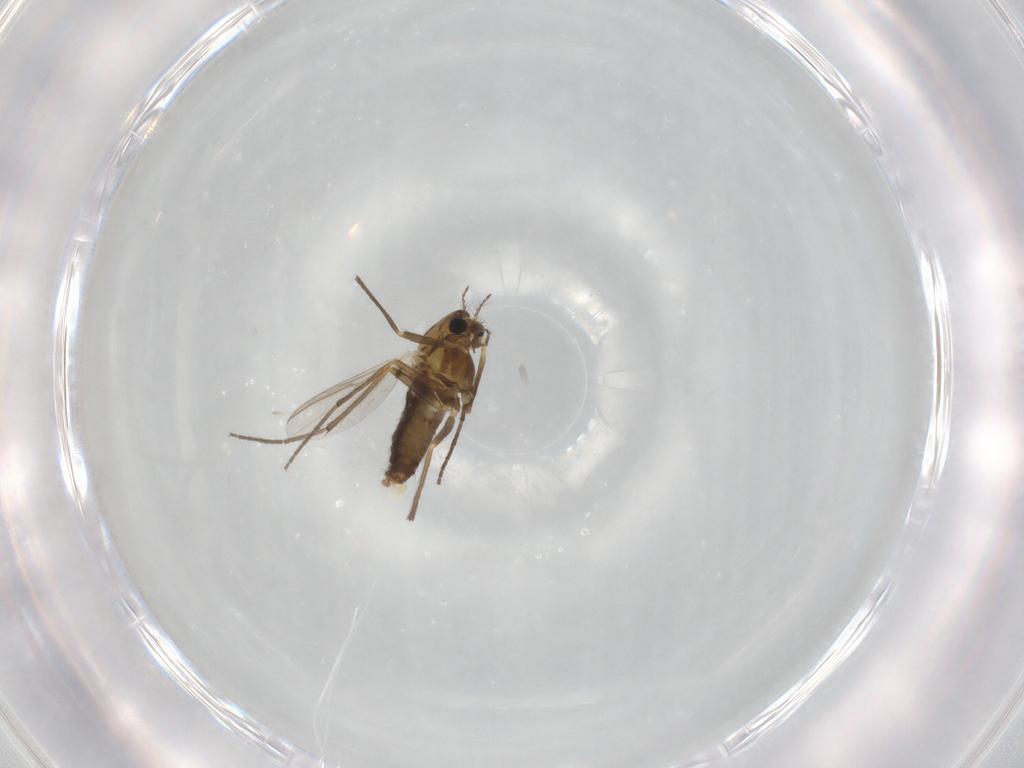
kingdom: Animalia
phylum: Arthropoda
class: Insecta
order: Diptera
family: Chironomidae
